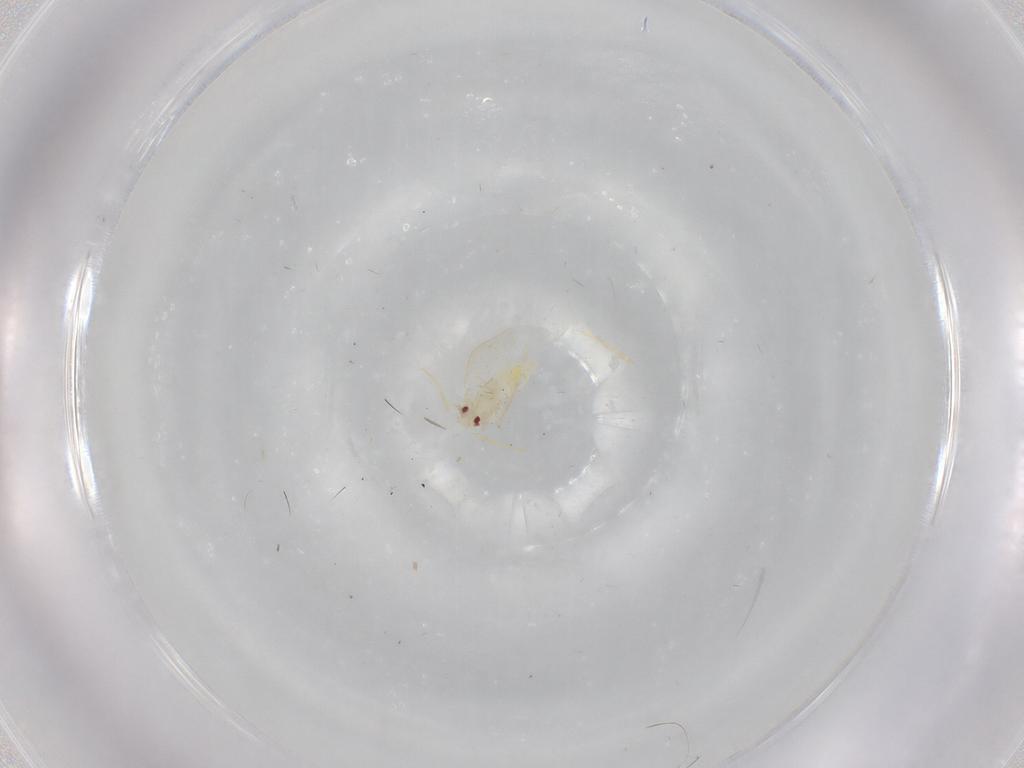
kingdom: Animalia
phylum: Arthropoda
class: Insecta
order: Hemiptera
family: Aleyrodidae
